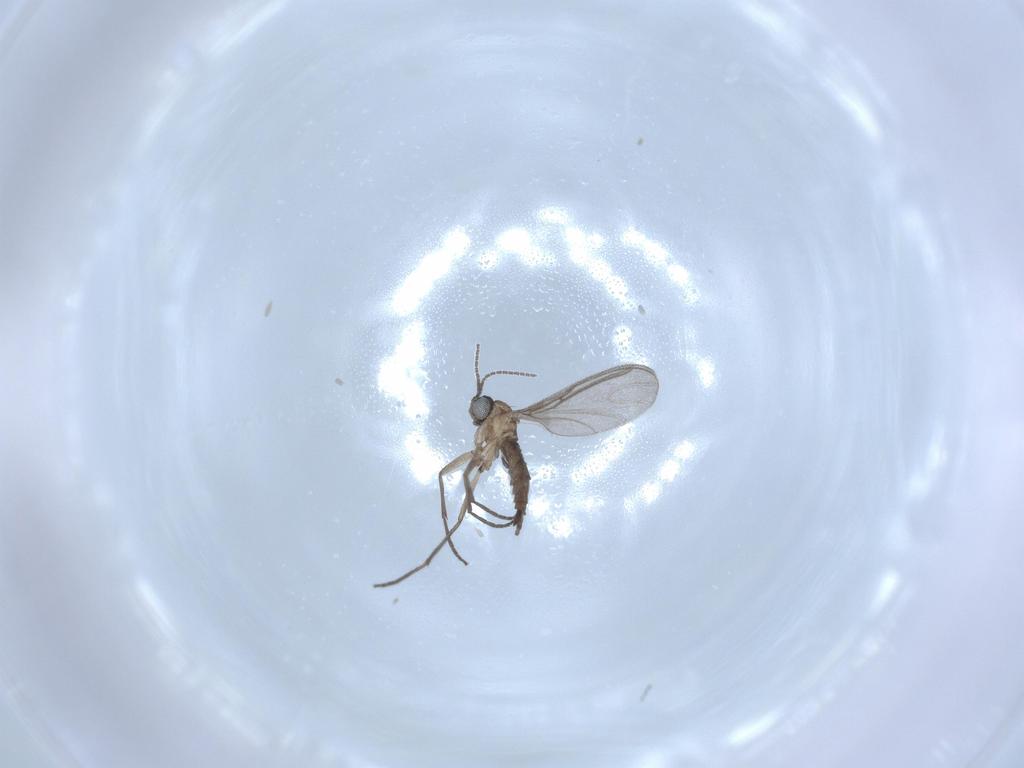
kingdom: Animalia
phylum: Arthropoda
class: Insecta
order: Diptera
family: Sciaridae
